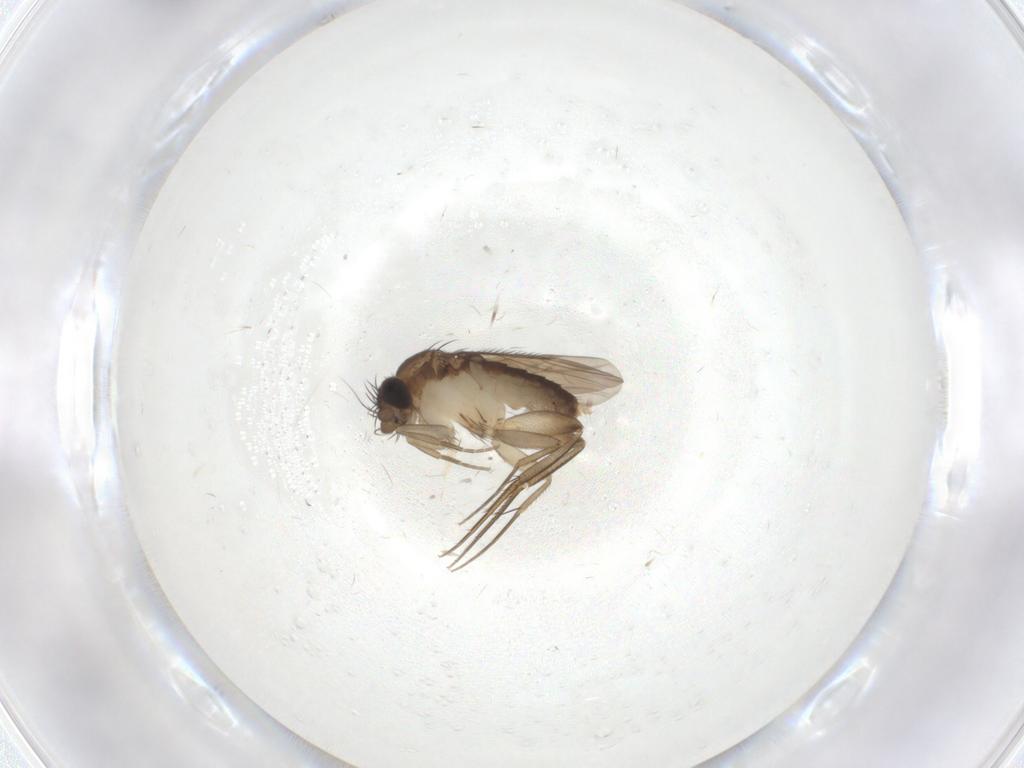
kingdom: Animalia
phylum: Arthropoda
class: Insecta
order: Diptera
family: Phoridae
